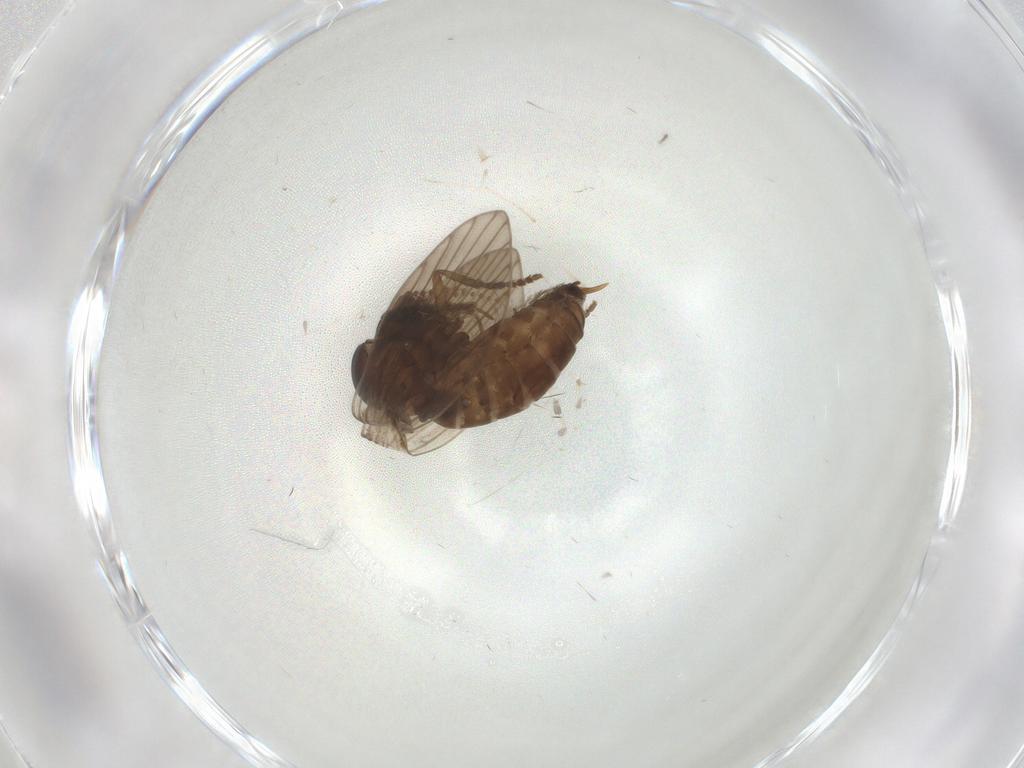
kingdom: Animalia
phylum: Arthropoda
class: Insecta
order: Diptera
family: Psychodidae
